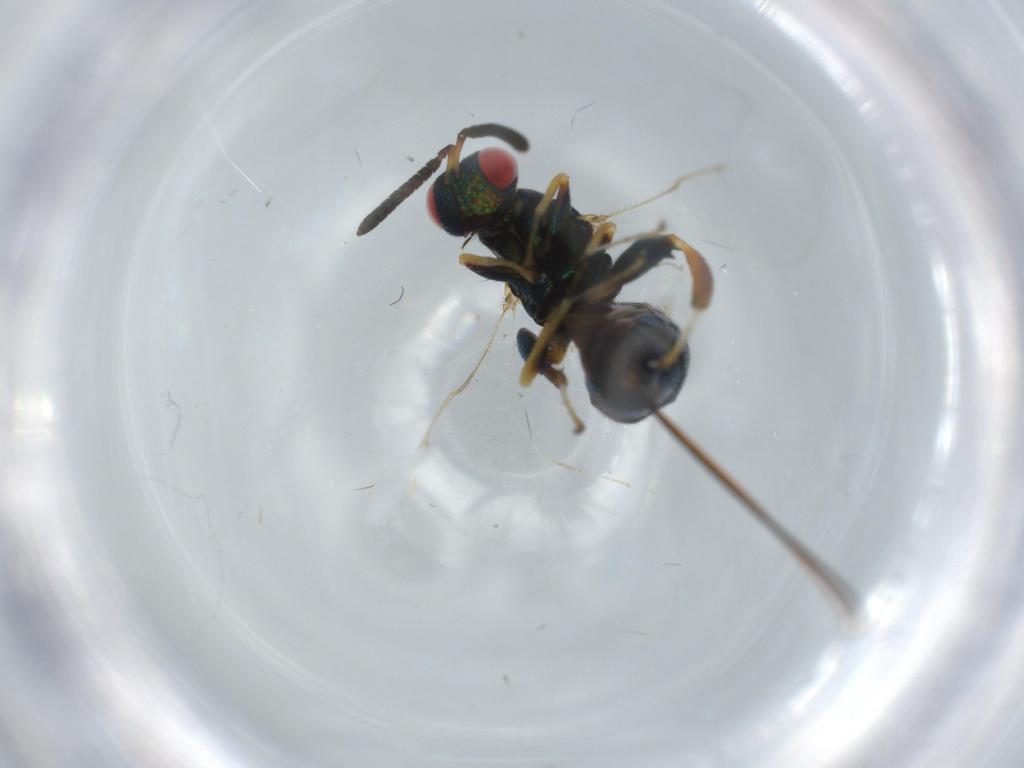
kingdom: Animalia
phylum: Arthropoda
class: Insecta
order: Hymenoptera
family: Torymidae
